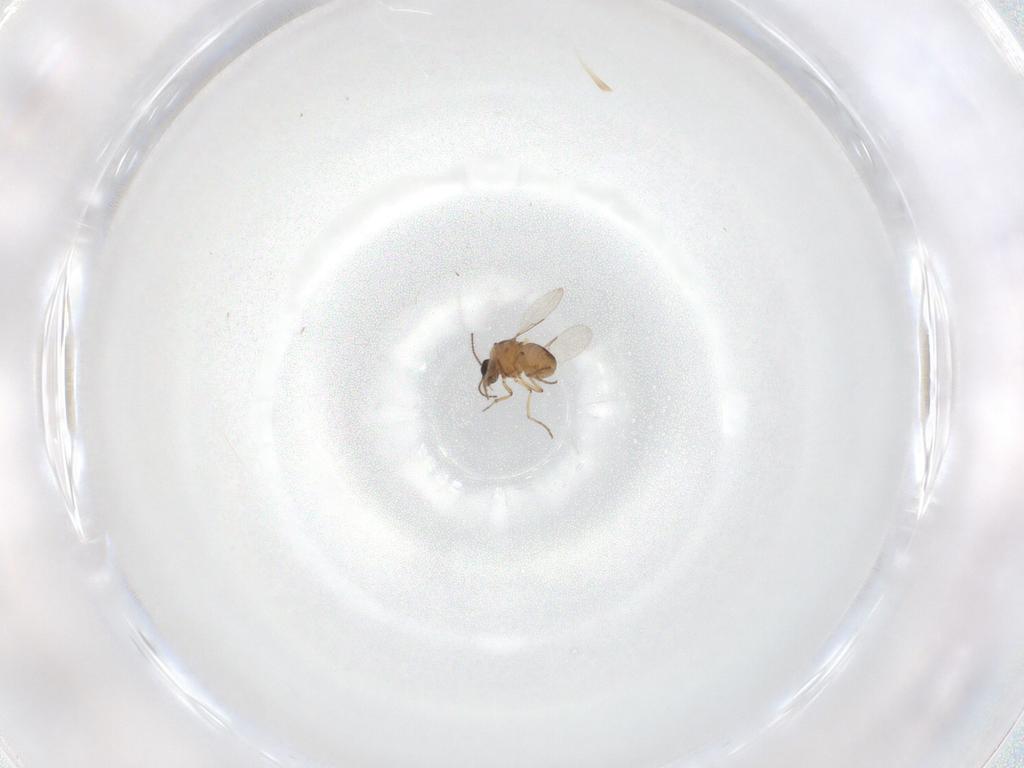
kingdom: Animalia
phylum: Arthropoda
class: Insecta
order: Diptera
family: Ceratopogonidae
